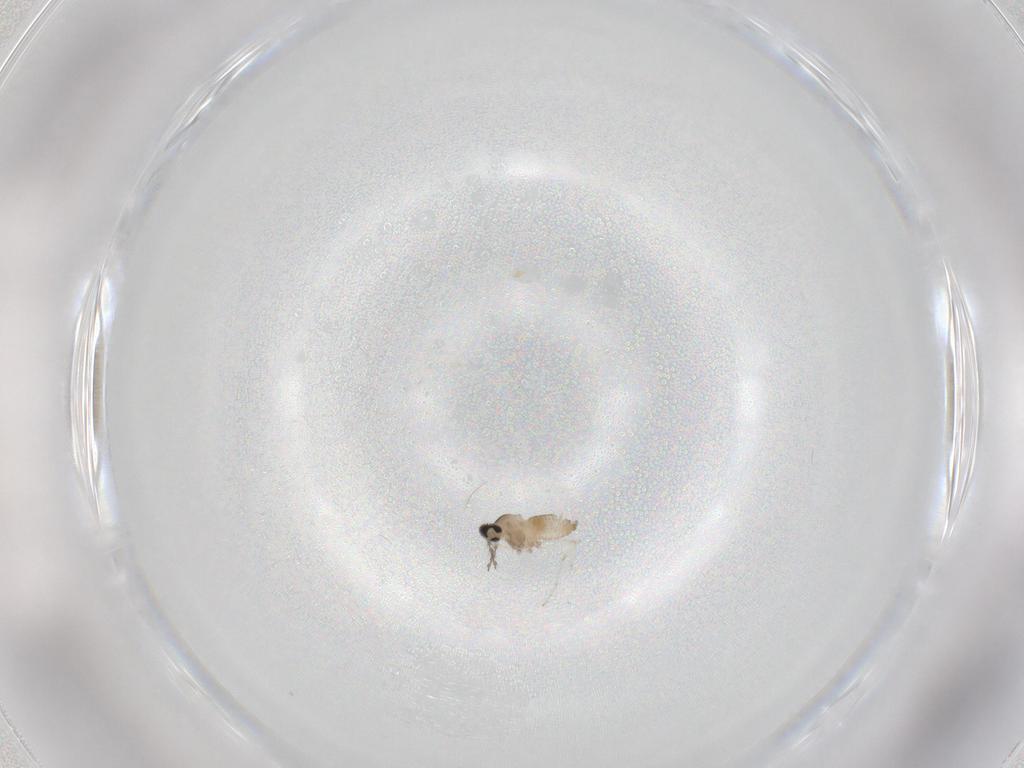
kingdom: Animalia
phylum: Arthropoda
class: Insecta
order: Diptera
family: Cecidomyiidae
